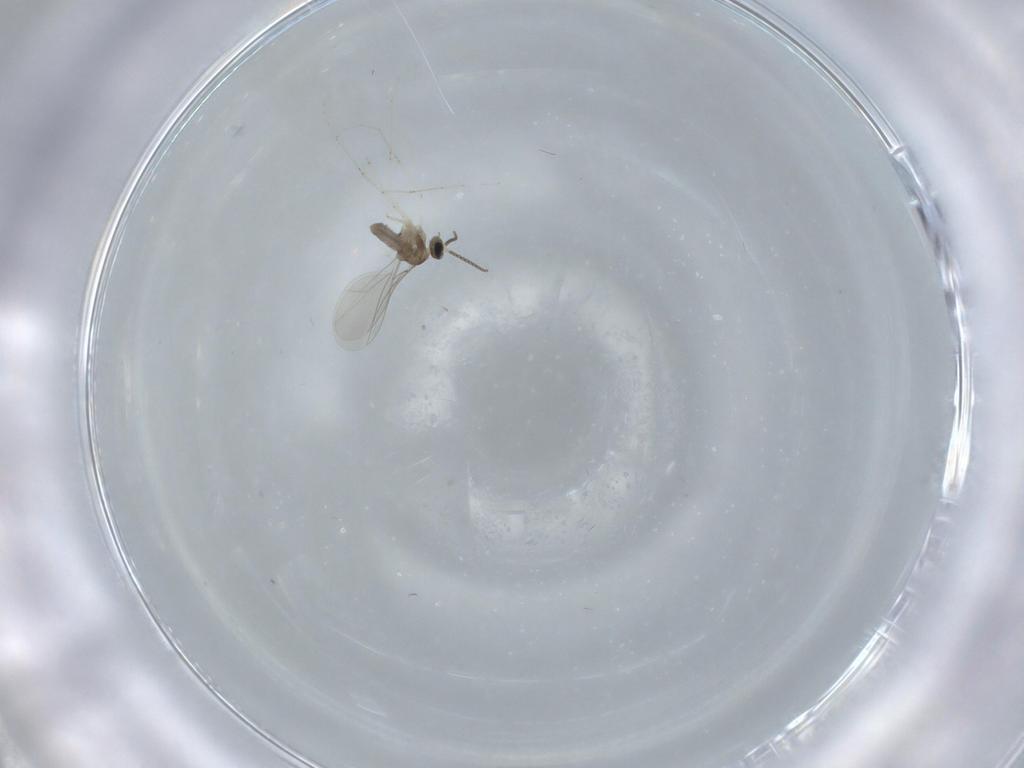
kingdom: Animalia
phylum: Arthropoda
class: Insecta
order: Diptera
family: Cecidomyiidae
